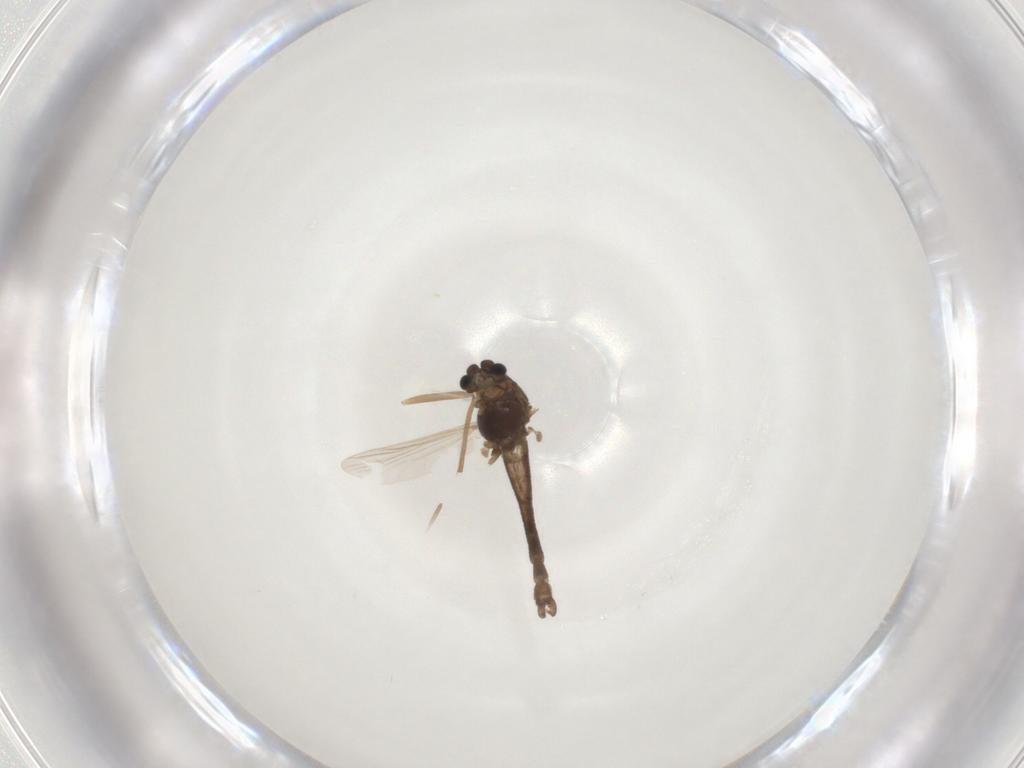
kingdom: Animalia
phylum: Arthropoda
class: Insecta
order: Diptera
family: Chironomidae
